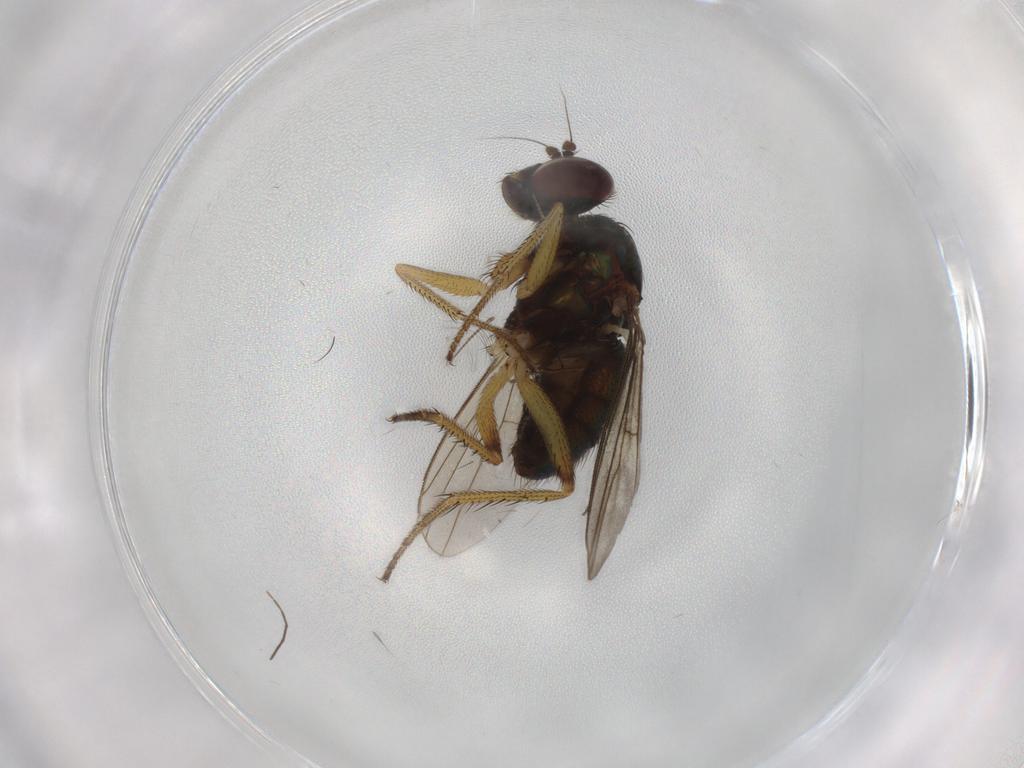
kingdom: Animalia
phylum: Arthropoda
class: Insecta
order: Diptera
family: Dolichopodidae
